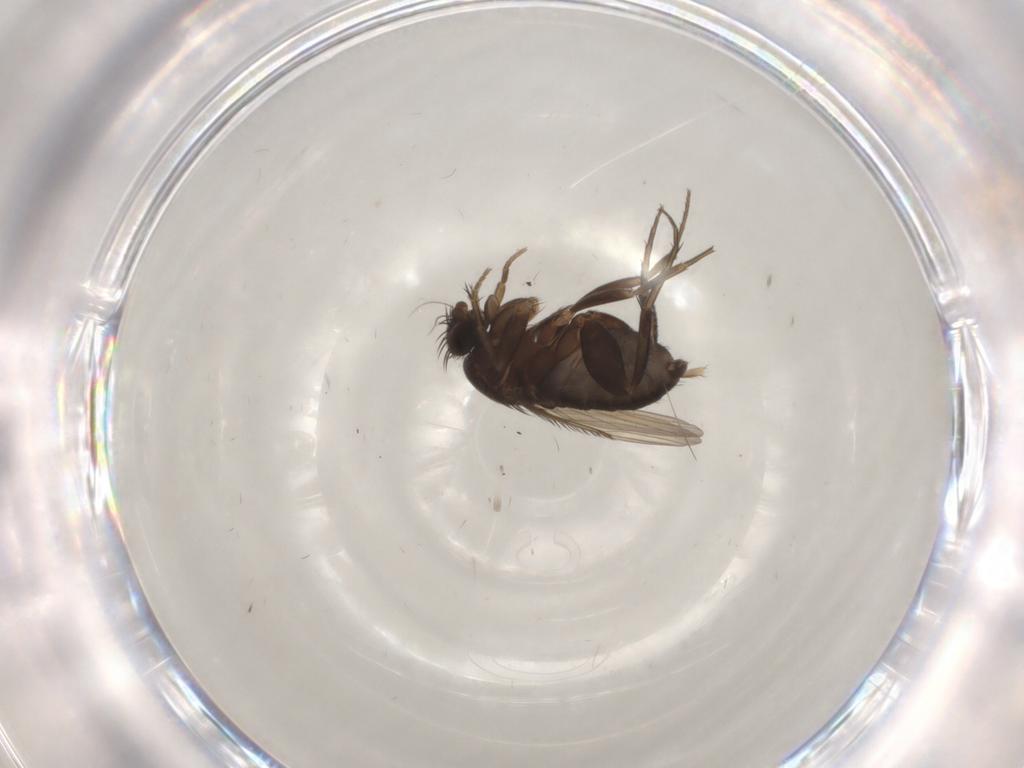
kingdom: Animalia
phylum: Arthropoda
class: Insecta
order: Diptera
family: Phoridae
